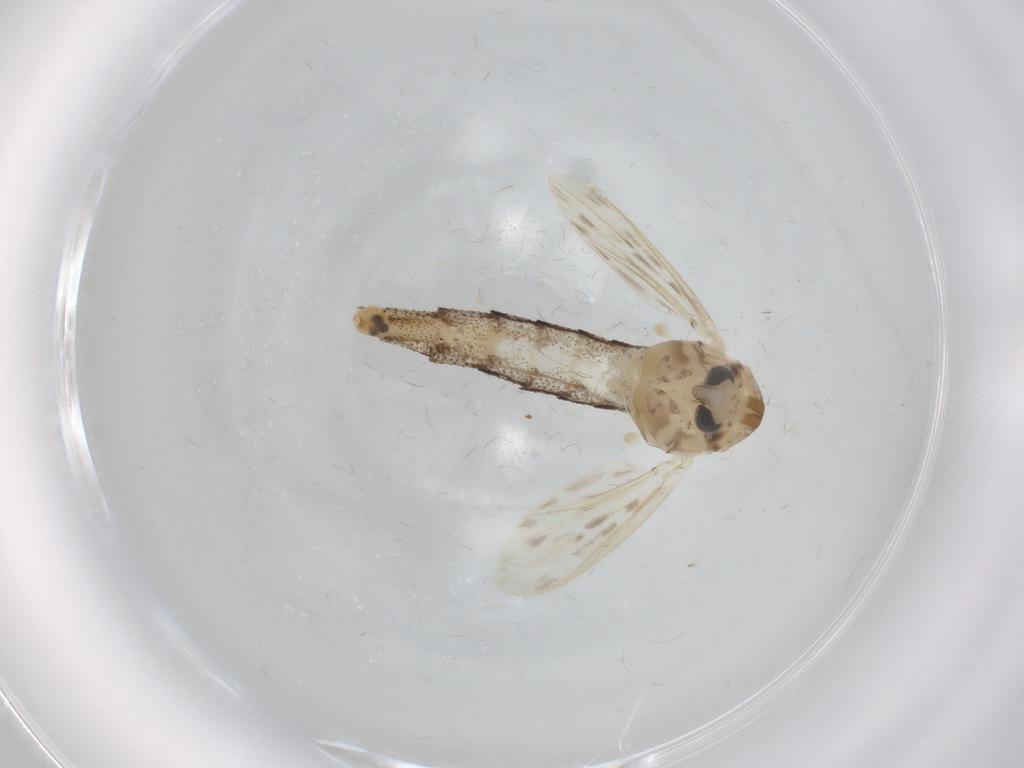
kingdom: Animalia
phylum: Arthropoda
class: Insecta
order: Diptera
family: Chaoboridae
